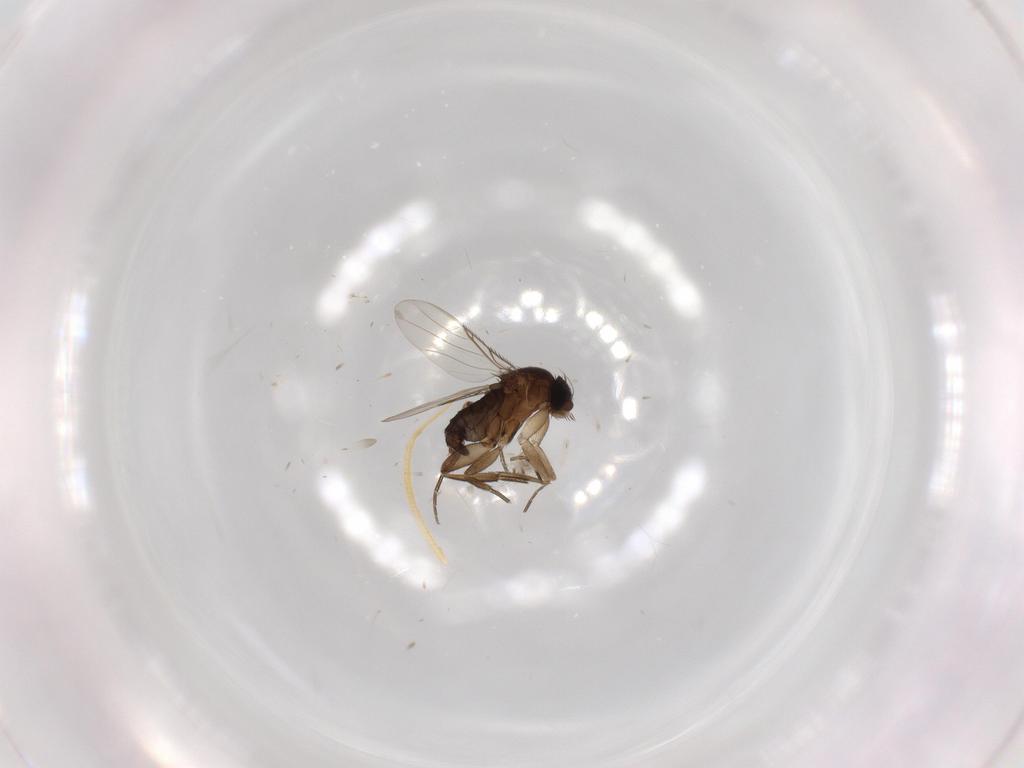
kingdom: Animalia
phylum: Arthropoda
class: Insecta
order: Diptera
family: Phoridae
